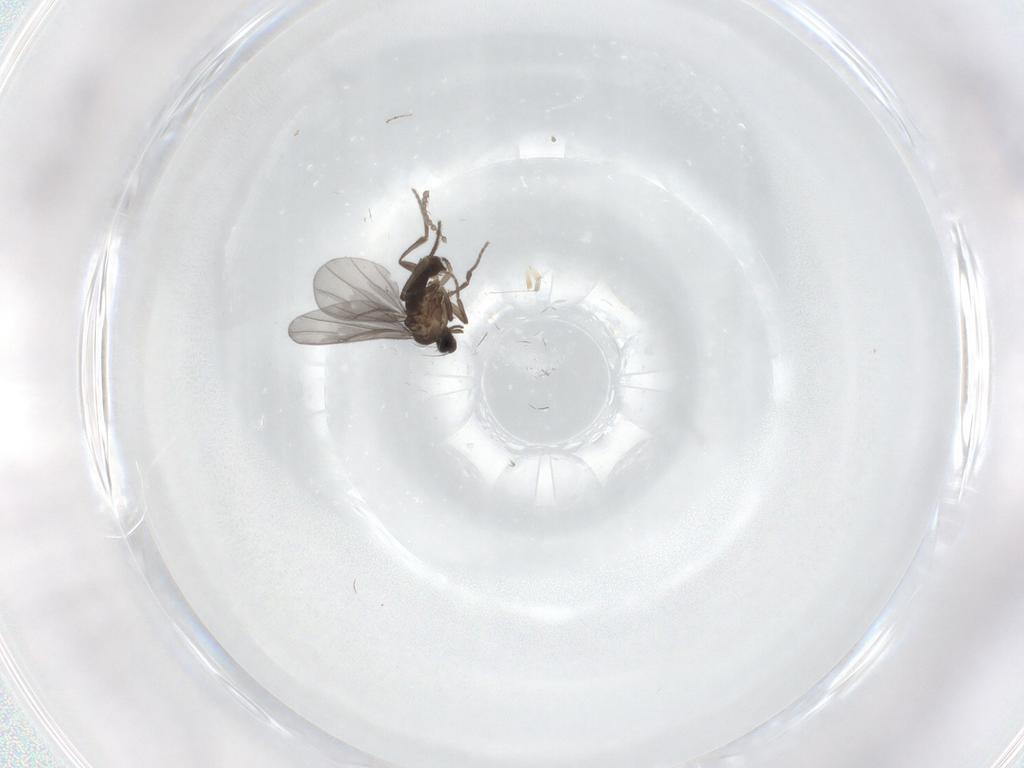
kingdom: Animalia
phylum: Arthropoda
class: Insecta
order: Diptera
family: Phoridae
